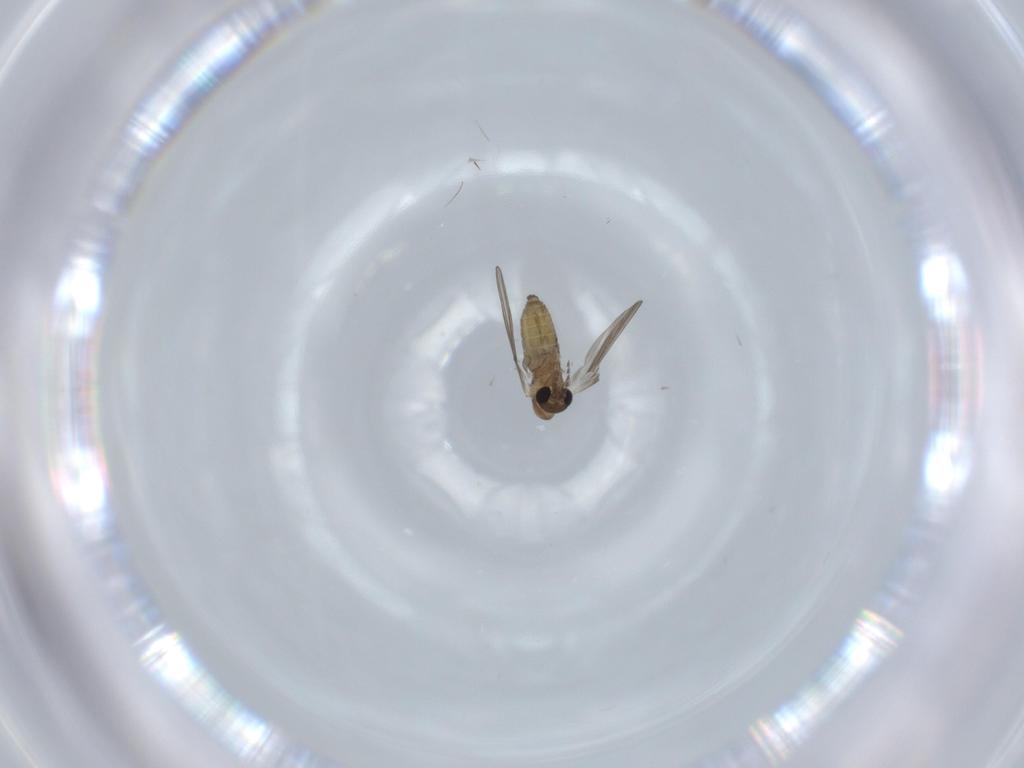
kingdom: Animalia
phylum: Arthropoda
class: Insecta
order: Diptera
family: Psychodidae
